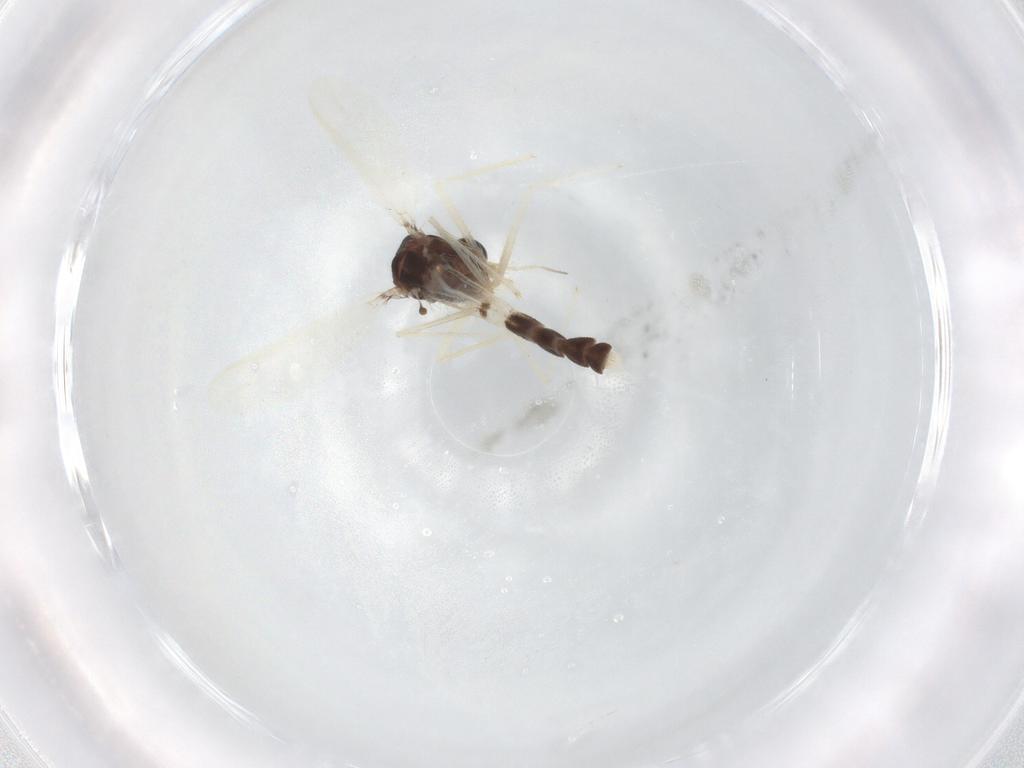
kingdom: Animalia
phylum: Arthropoda
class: Insecta
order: Diptera
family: Chironomidae
